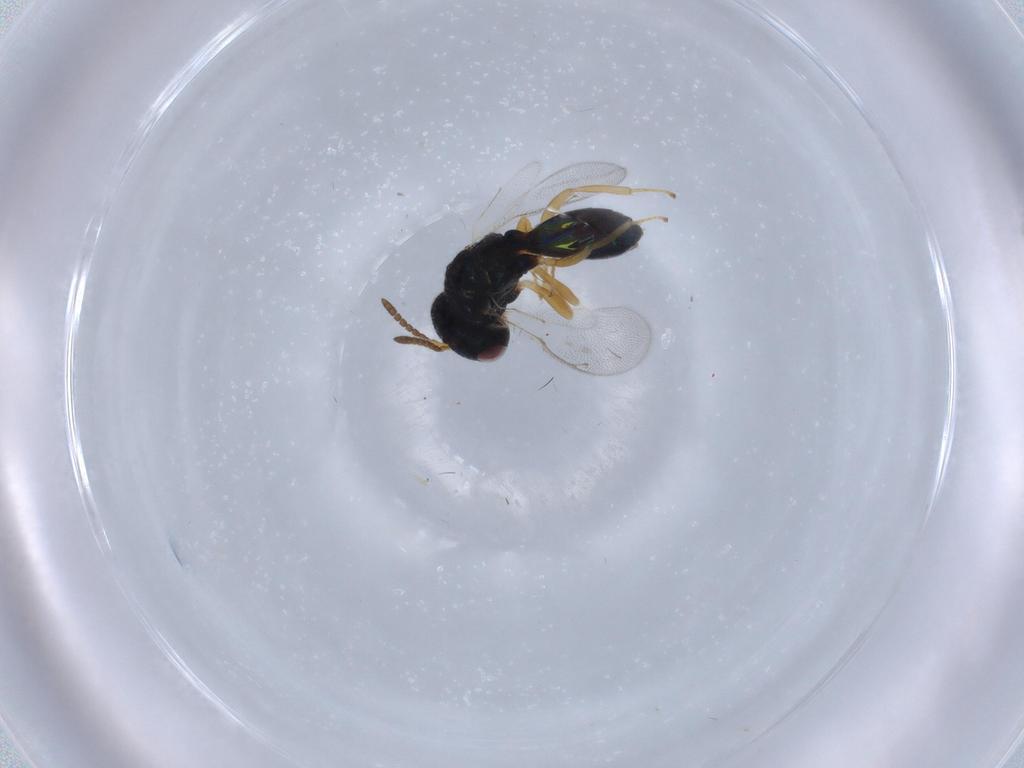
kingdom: Animalia
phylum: Arthropoda
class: Insecta
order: Hymenoptera
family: Pteromalidae
